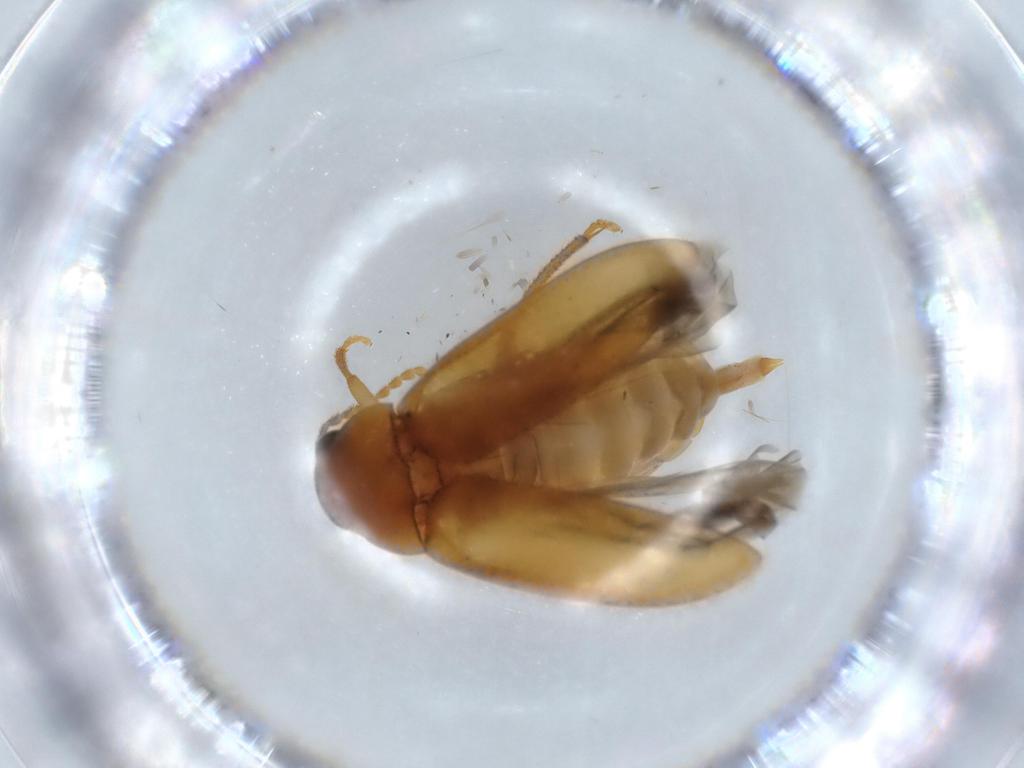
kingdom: Animalia
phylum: Arthropoda
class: Insecta
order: Coleoptera
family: Ptilodactylidae
